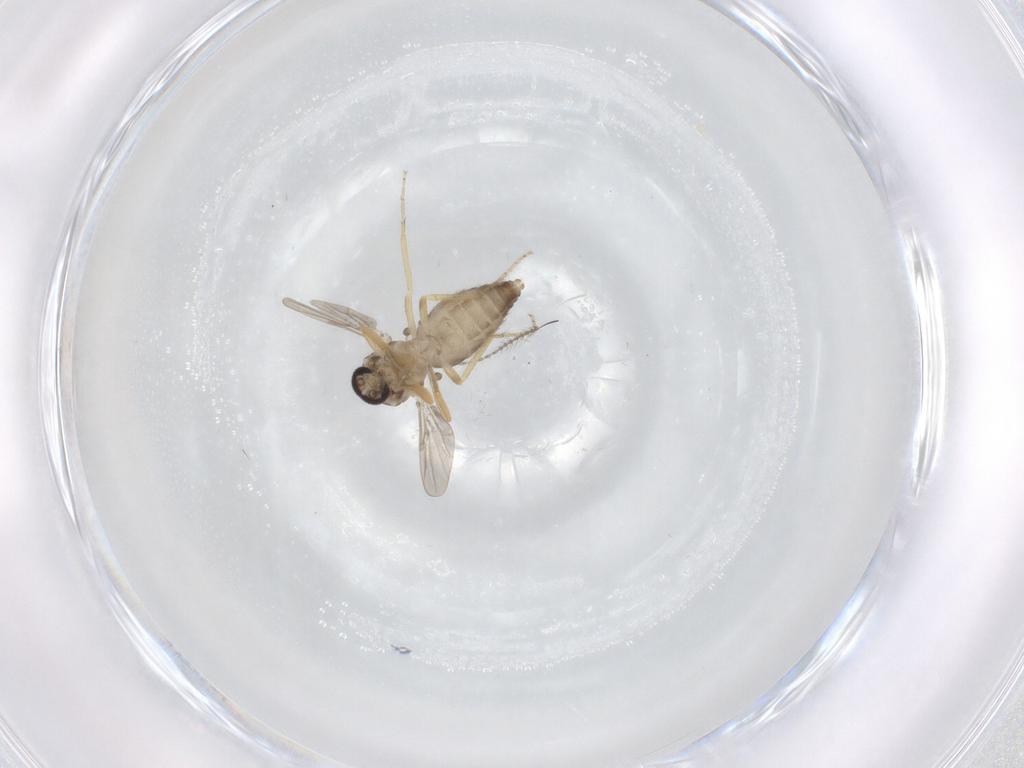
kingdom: Animalia
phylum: Arthropoda
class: Insecta
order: Diptera
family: Ceratopogonidae
